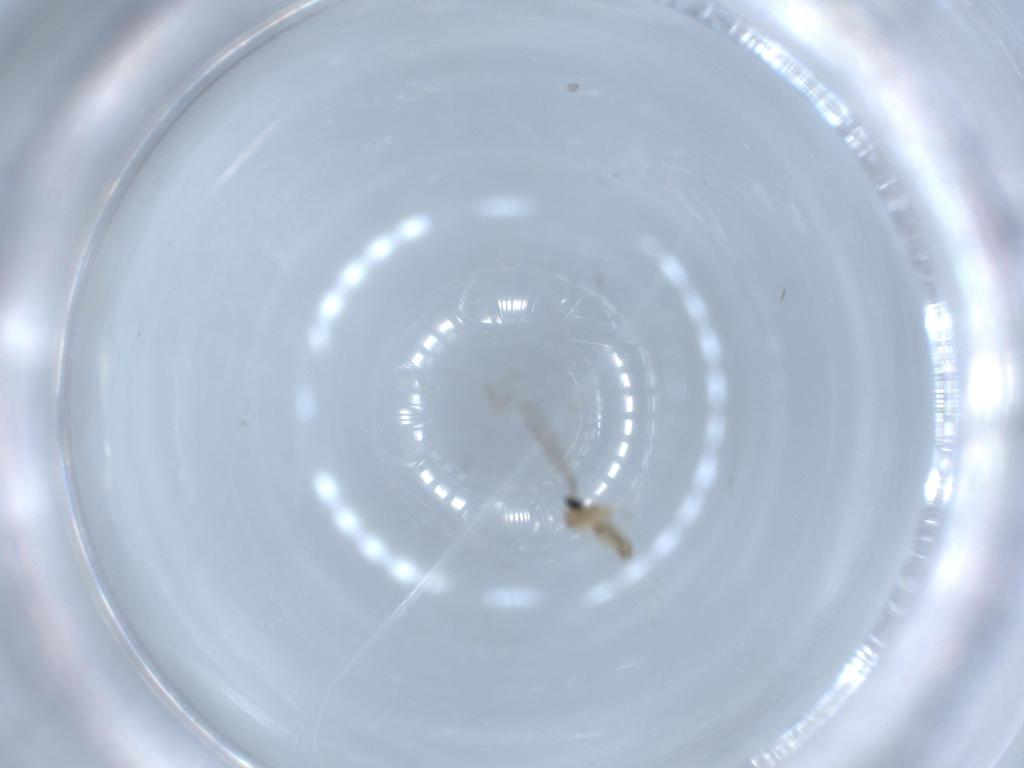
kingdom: Animalia
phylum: Arthropoda
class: Insecta
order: Diptera
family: Cecidomyiidae
